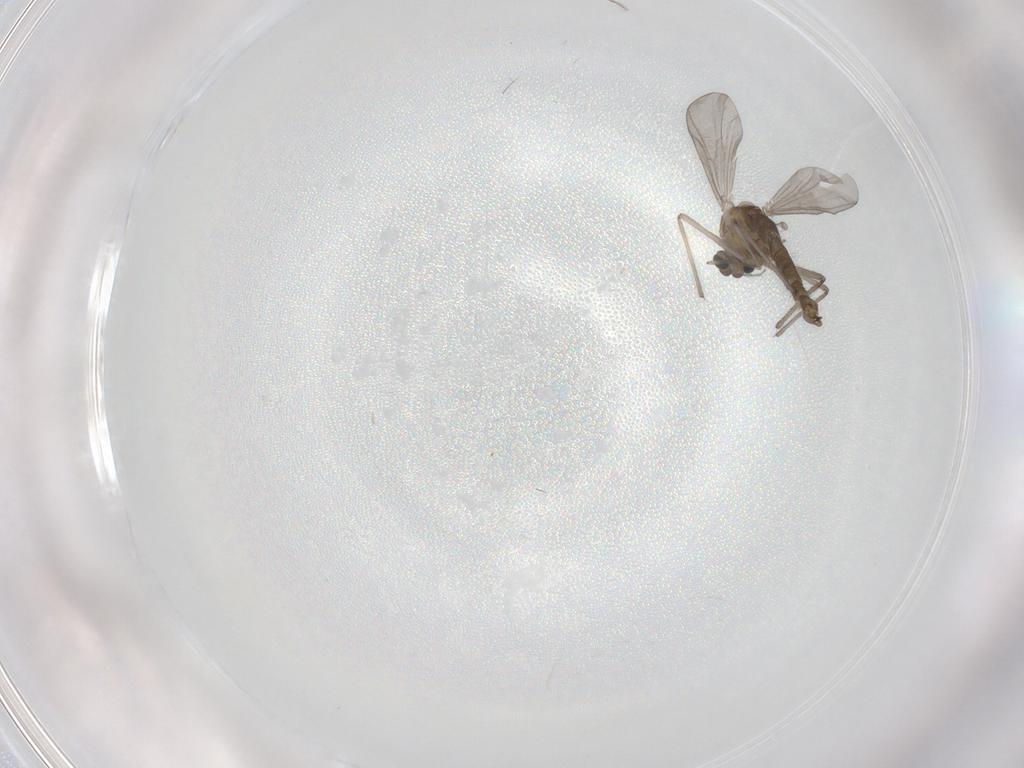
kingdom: Animalia
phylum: Arthropoda
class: Insecta
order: Diptera
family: Chironomidae
